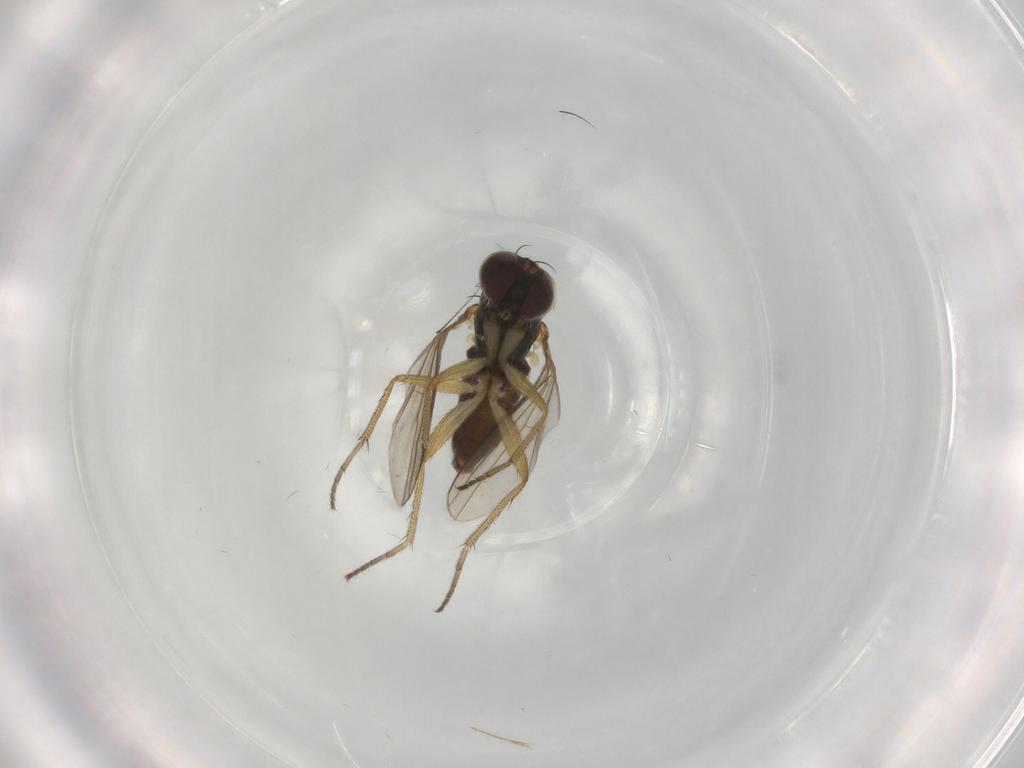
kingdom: Animalia
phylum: Arthropoda
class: Insecta
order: Diptera
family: Dolichopodidae
